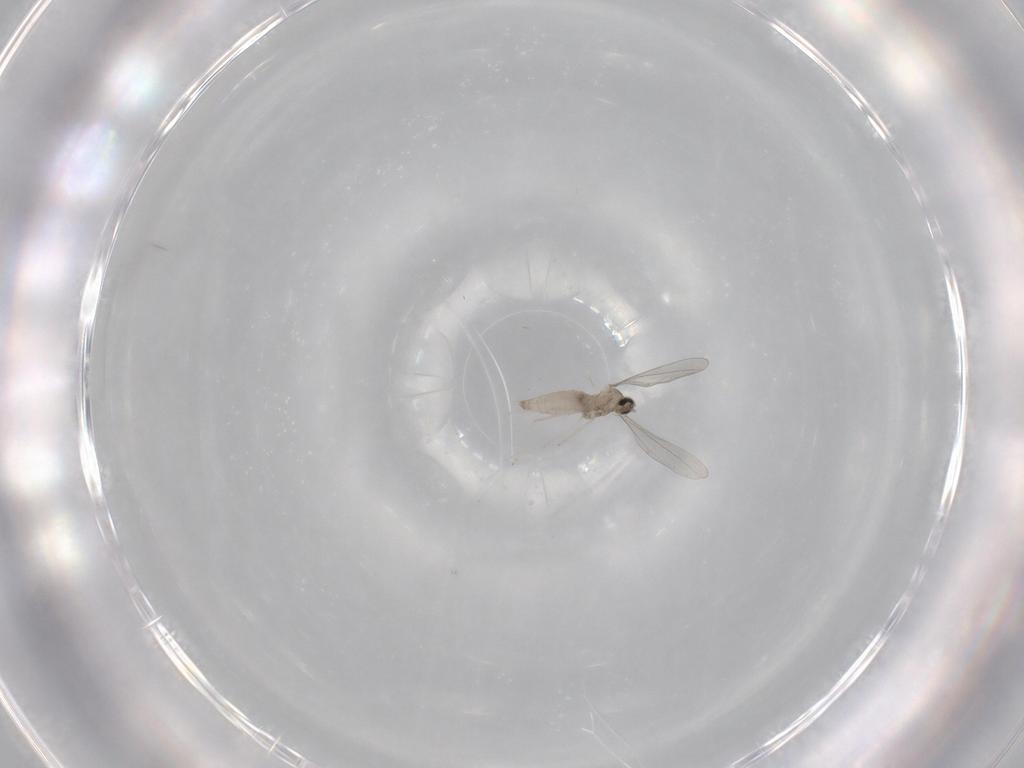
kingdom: Animalia
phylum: Arthropoda
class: Insecta
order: Diptera
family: Cecidomyiidae
